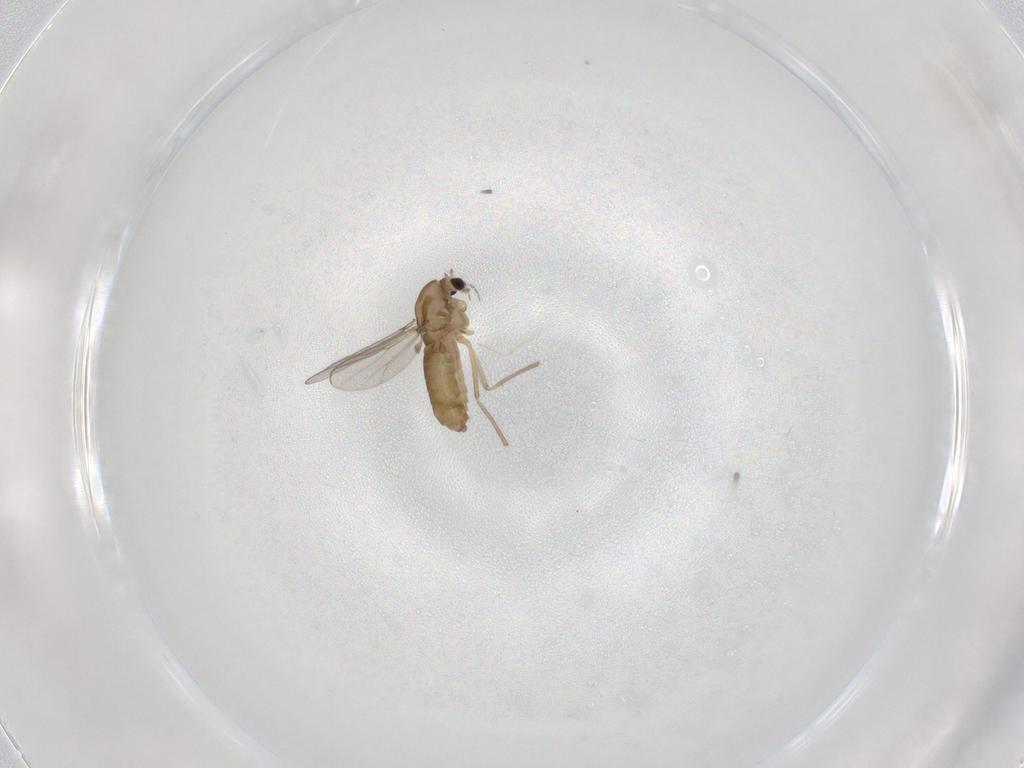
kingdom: Animalia
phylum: Arthropoda
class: Insecta
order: Diptera
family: Chironomidae
